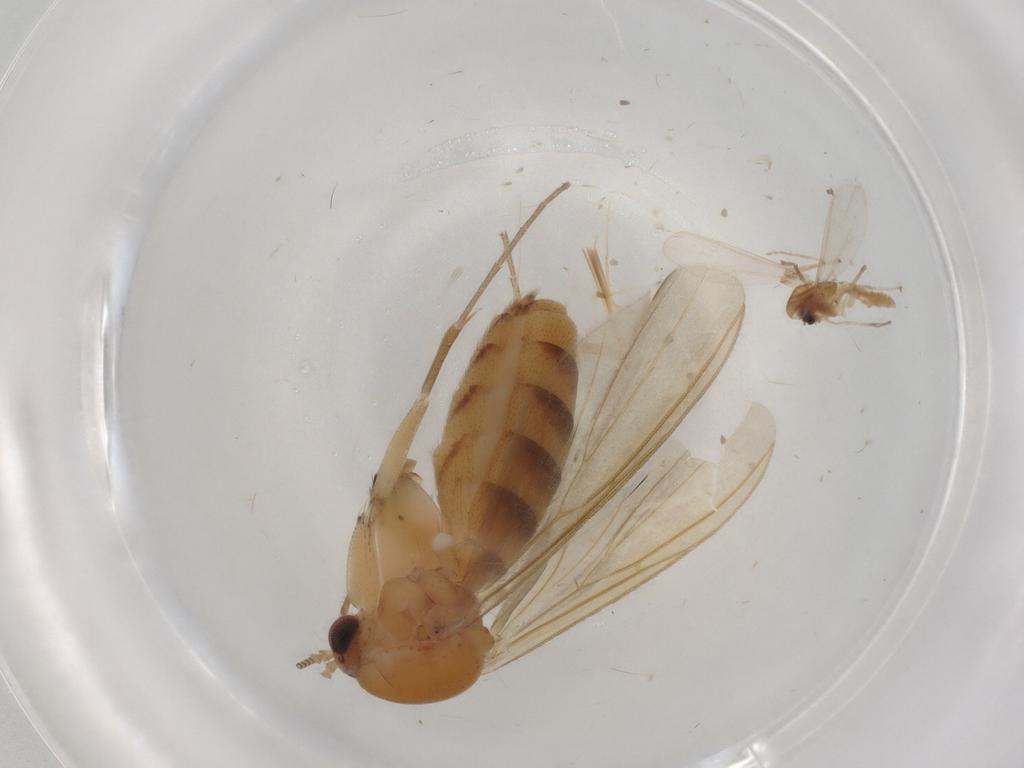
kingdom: Animalia
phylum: Arthropoda
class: Insecta
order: Diptera
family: Mycetophilidae
